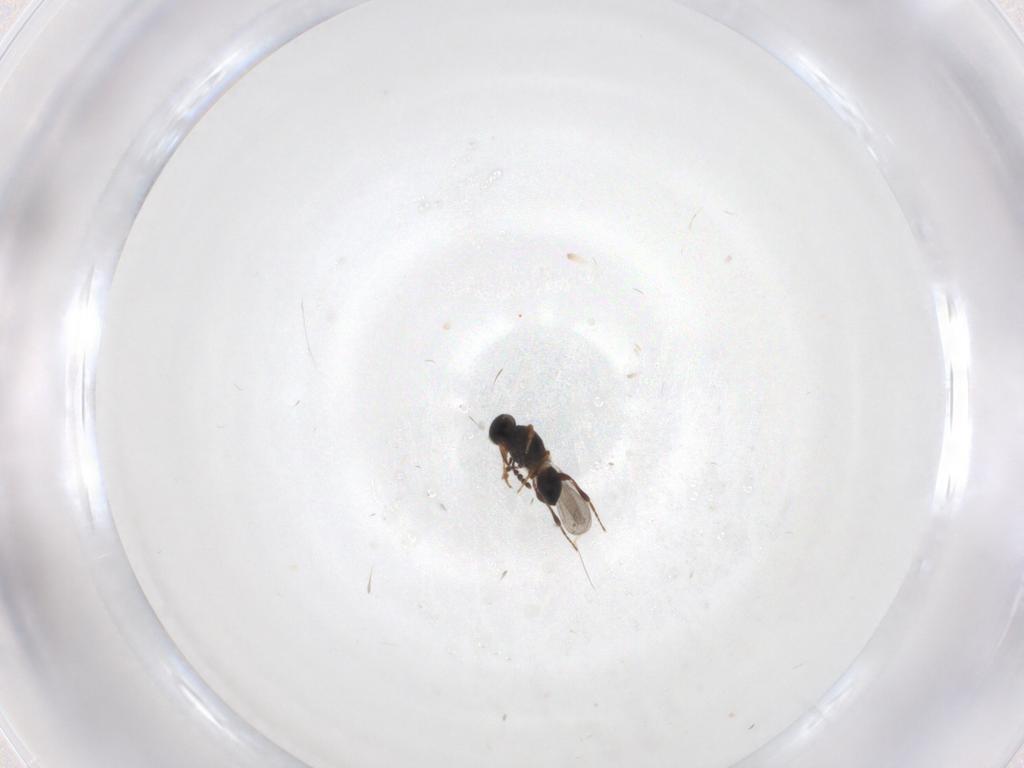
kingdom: Animalia
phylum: Arthropoda
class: Insecta
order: Hymenoptera
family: Platygastridae
